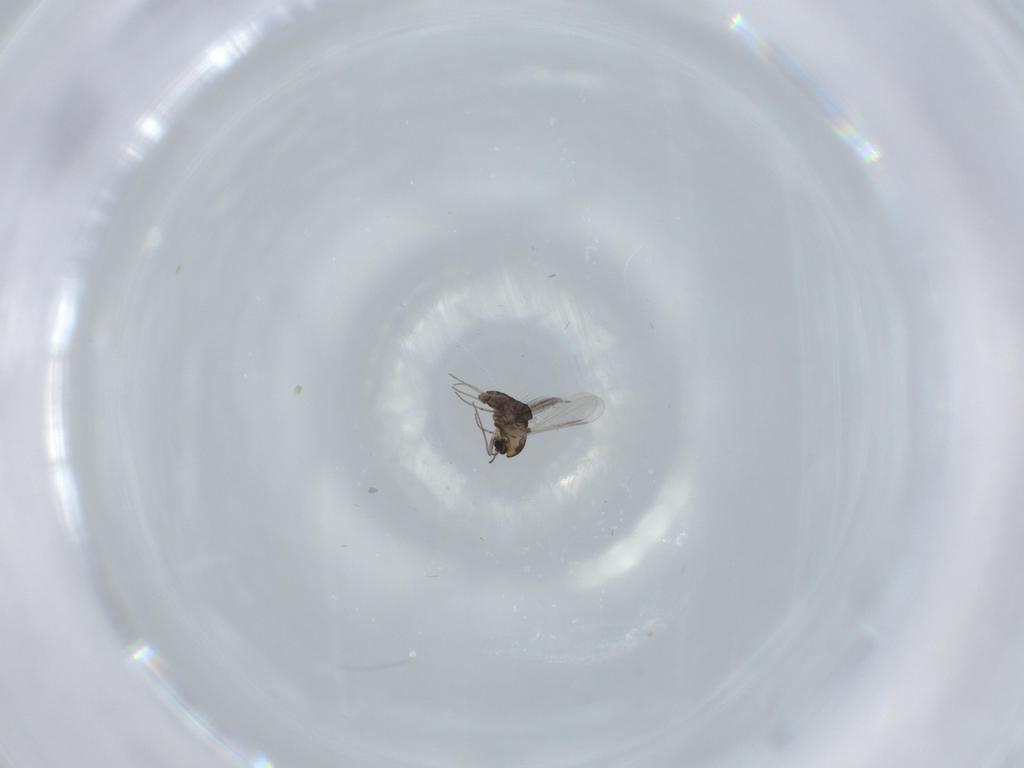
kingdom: Animalia
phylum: Arthropoda
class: Insecta
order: Diptera
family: Chironomidae
